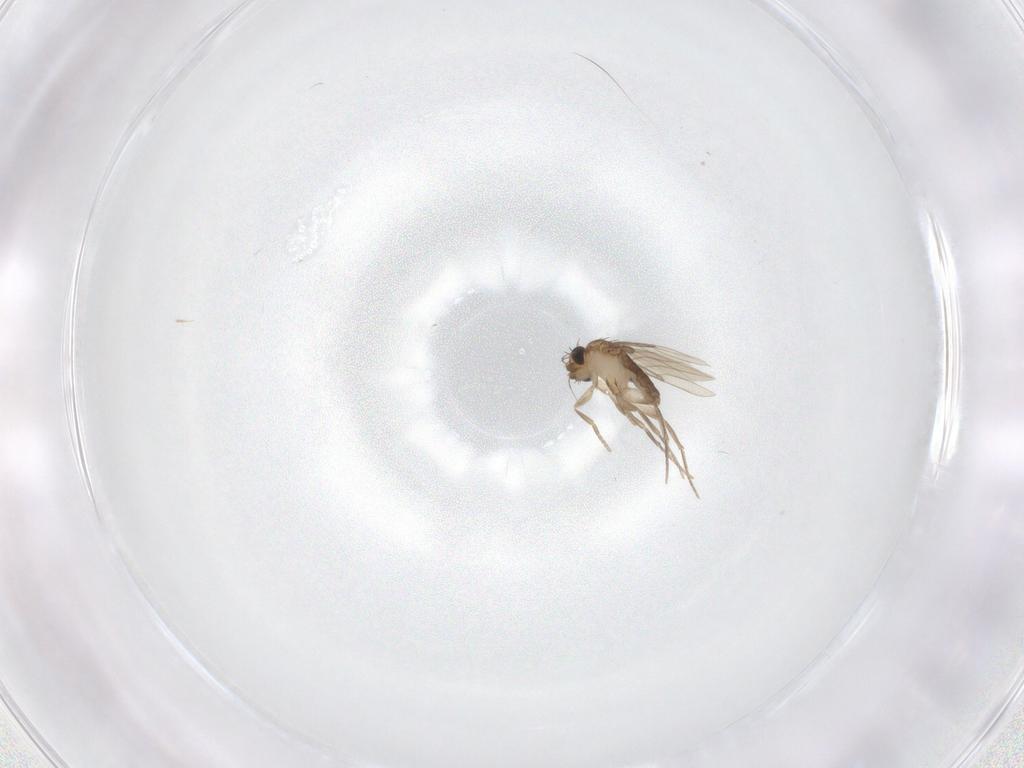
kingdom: Animalia
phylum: Arthropoda
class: Insecta
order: Diptera
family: Phoridae
